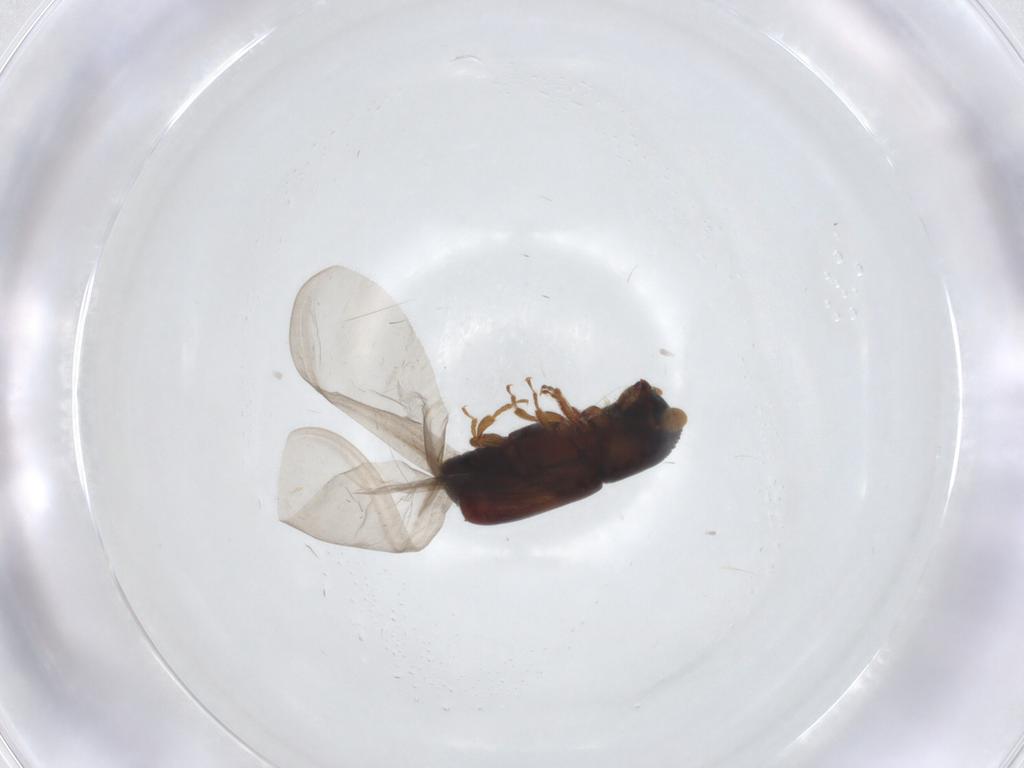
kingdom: Animalia
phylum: Arthropoda
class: Insecta
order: Coleoptera
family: Curculionidae
